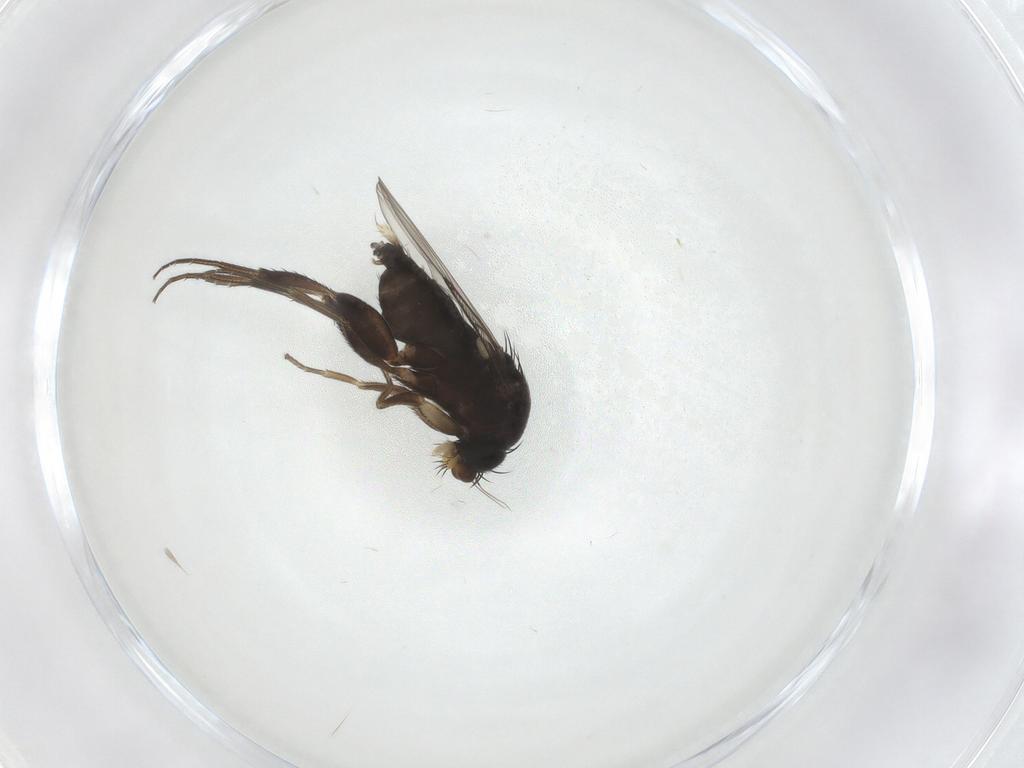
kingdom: Animalia
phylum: Arthropoda
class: Insecta
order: Diptera
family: Phoridae
